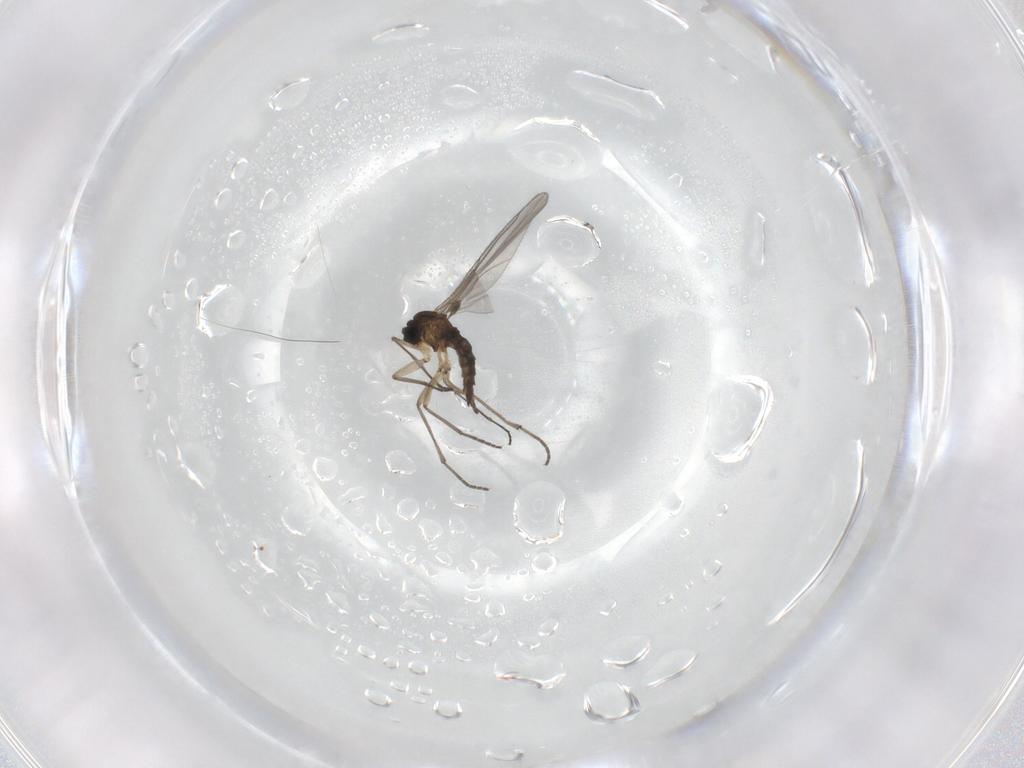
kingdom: Animalia
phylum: Arthropoda
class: Insecta
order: Diptera
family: Sciaridae
